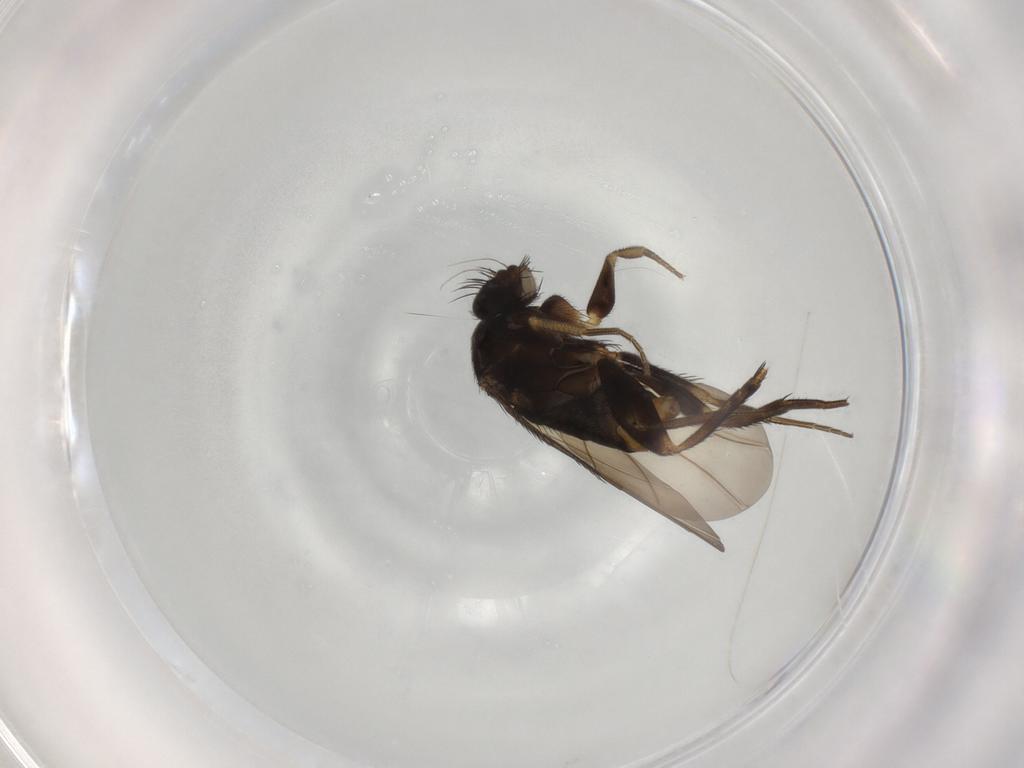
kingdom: Animalia
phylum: Arthropoda
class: Insecta
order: Diptera
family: Phoridae
